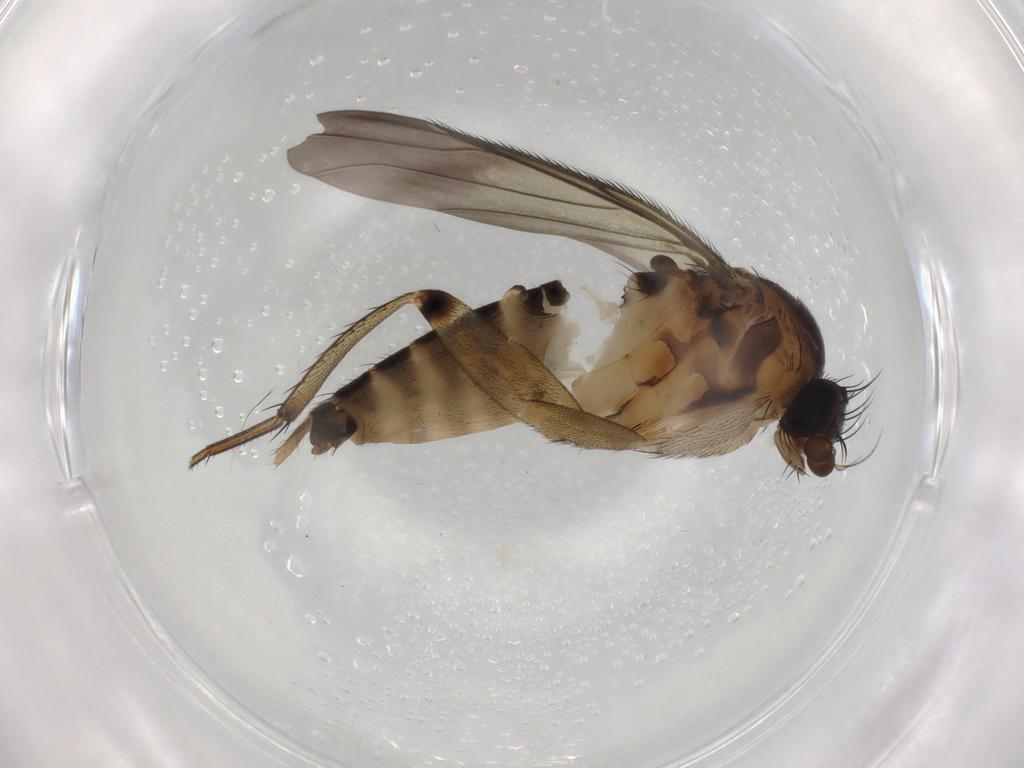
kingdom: Animalia
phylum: Arthropoda
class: Insecta
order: Diptera
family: Sciaridae
